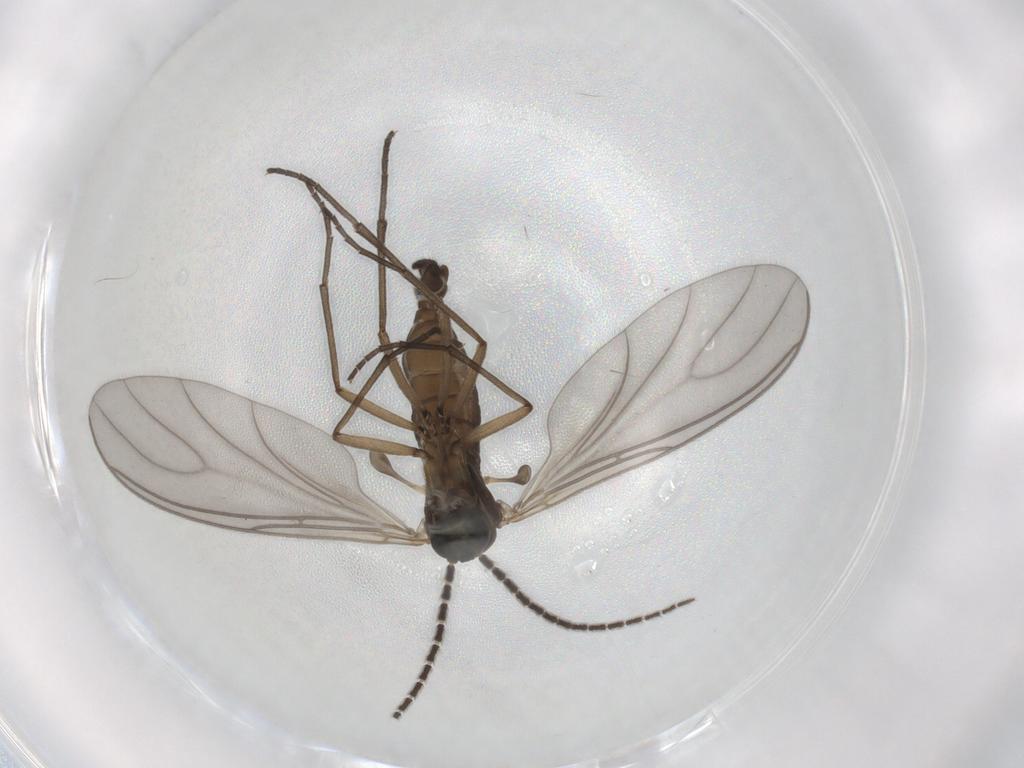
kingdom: Animalia
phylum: Arthropoda
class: Insecta
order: Diptera
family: Sciaridae
